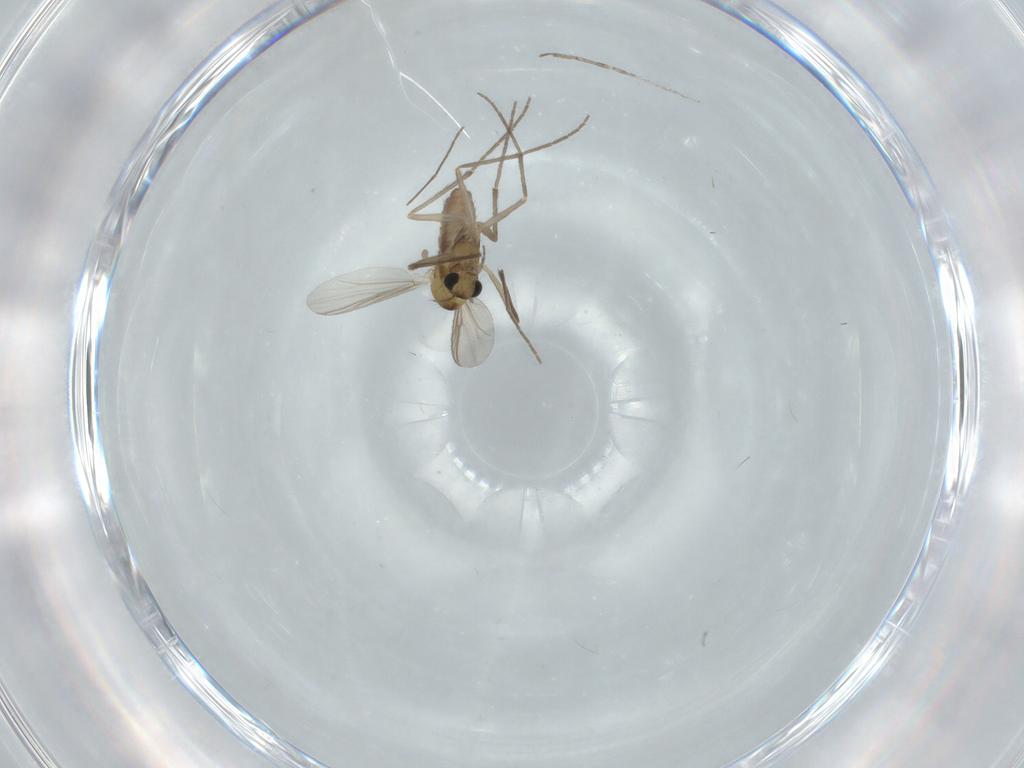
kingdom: Animalia
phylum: Arthropoda
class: Insecta
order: Diptera
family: Chironomidae
